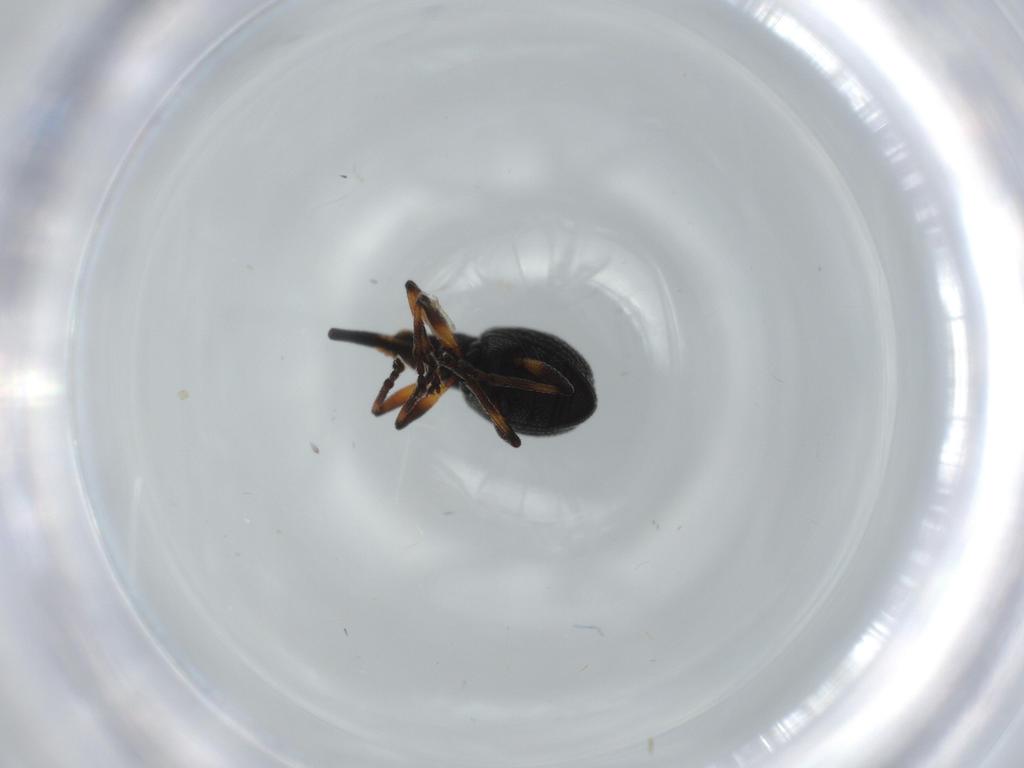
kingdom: Animalia
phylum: Arthropoda
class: Insecta
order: Coleoptera
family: Brentidae
